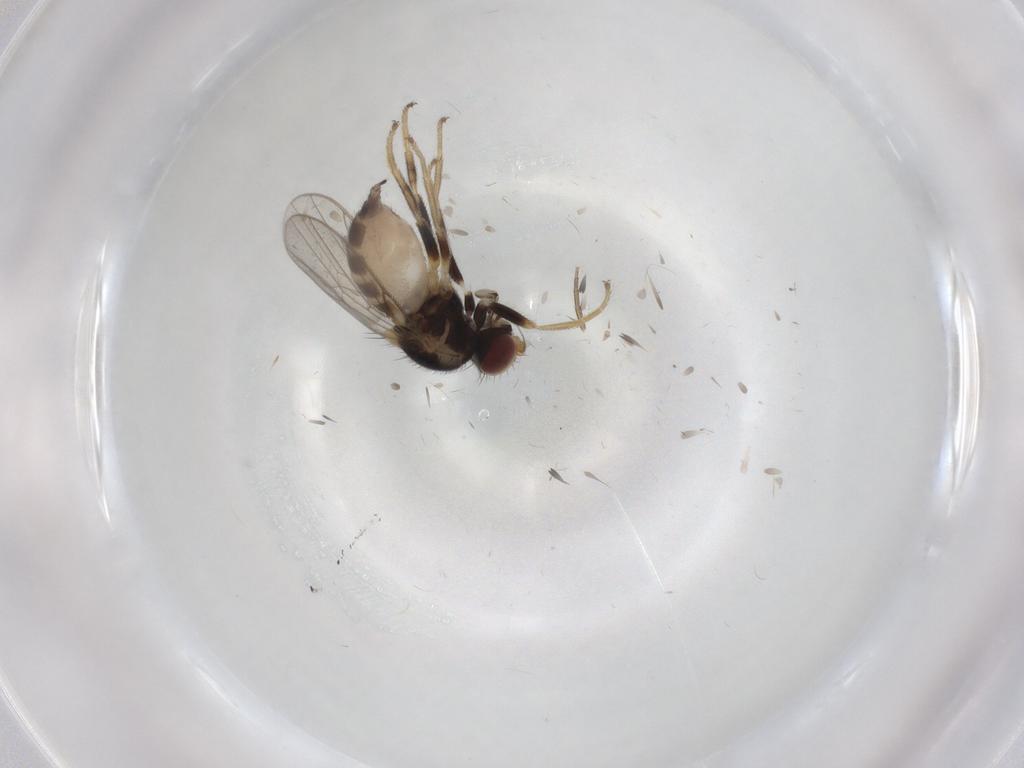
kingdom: Animalia
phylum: Arthropoda
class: Insecta
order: Diptera
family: Chloropidae
